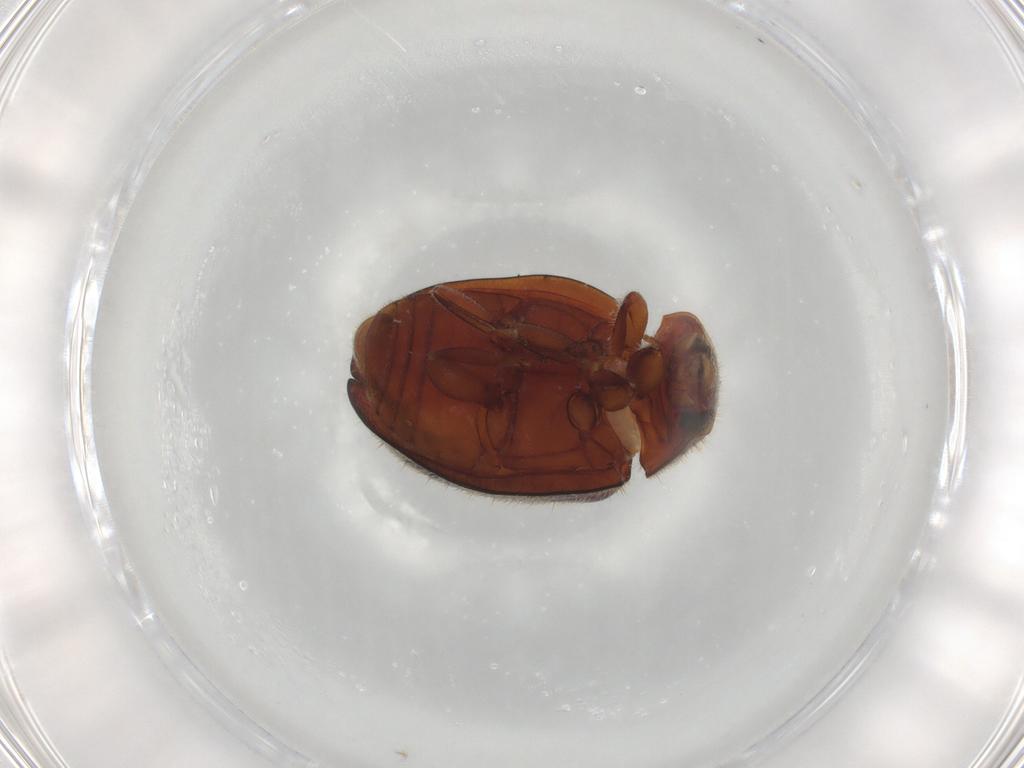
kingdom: Animalia
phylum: Arthropoda
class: Insecta
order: Coleoptera
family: Coccinellidae
